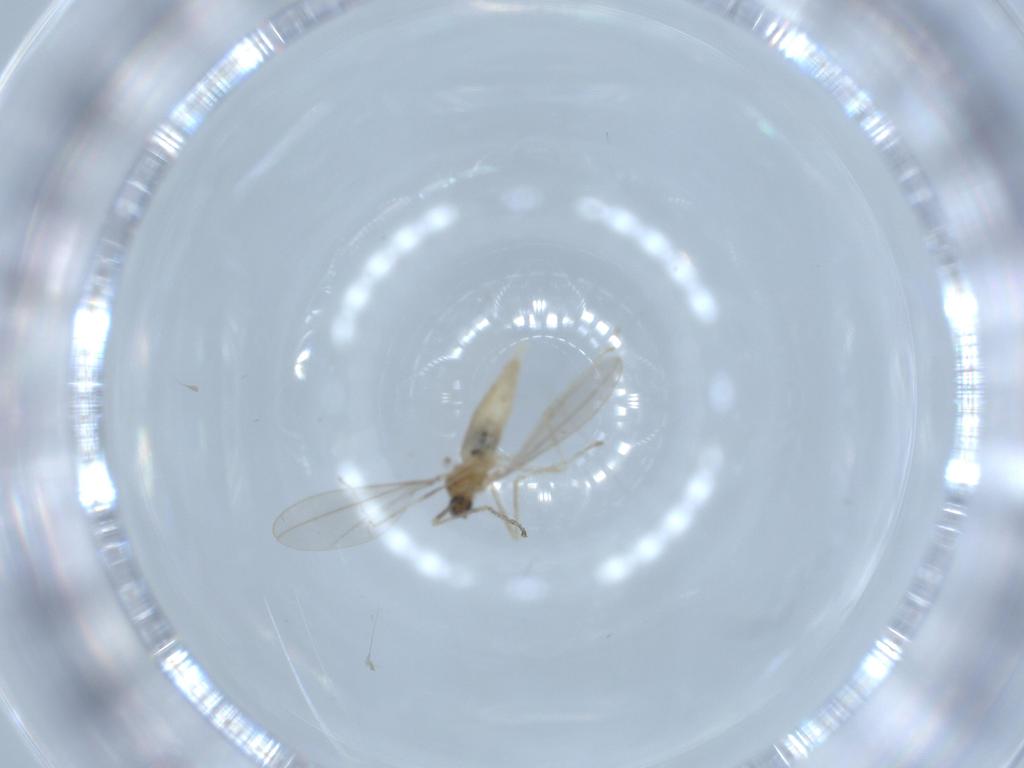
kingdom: Animalia
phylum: Arthropoda
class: Insecta
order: Diptera
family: Cecidomyiidae
